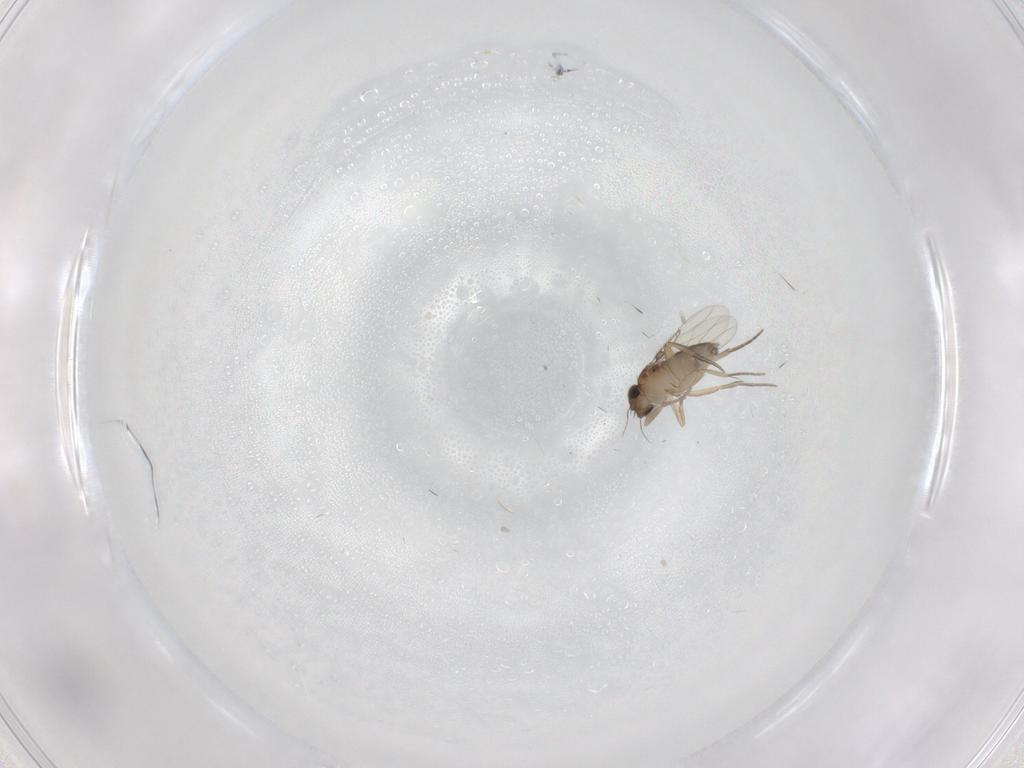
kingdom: Animalia
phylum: Arthropoda
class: Insecta
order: Diptera
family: Phoridae
